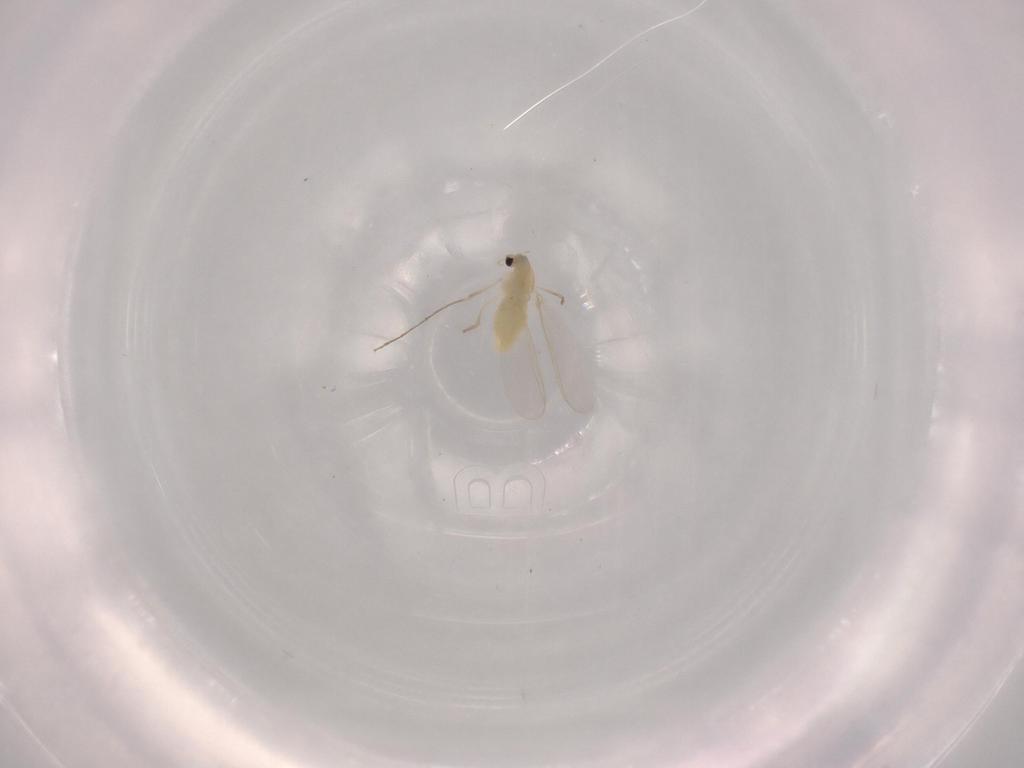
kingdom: Animalia
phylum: Arthropoda
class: Insecta
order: Diptera
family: Chironomidae
